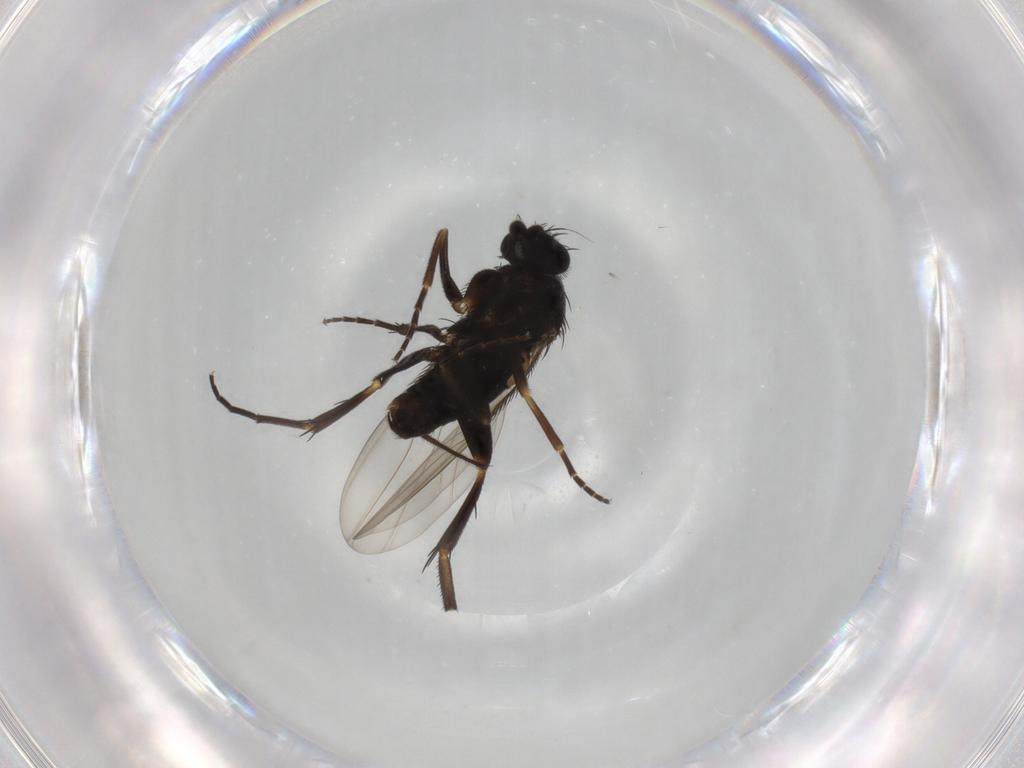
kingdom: Animalia
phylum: Arthropoda
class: Insecta
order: Diptera
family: Phoridae
